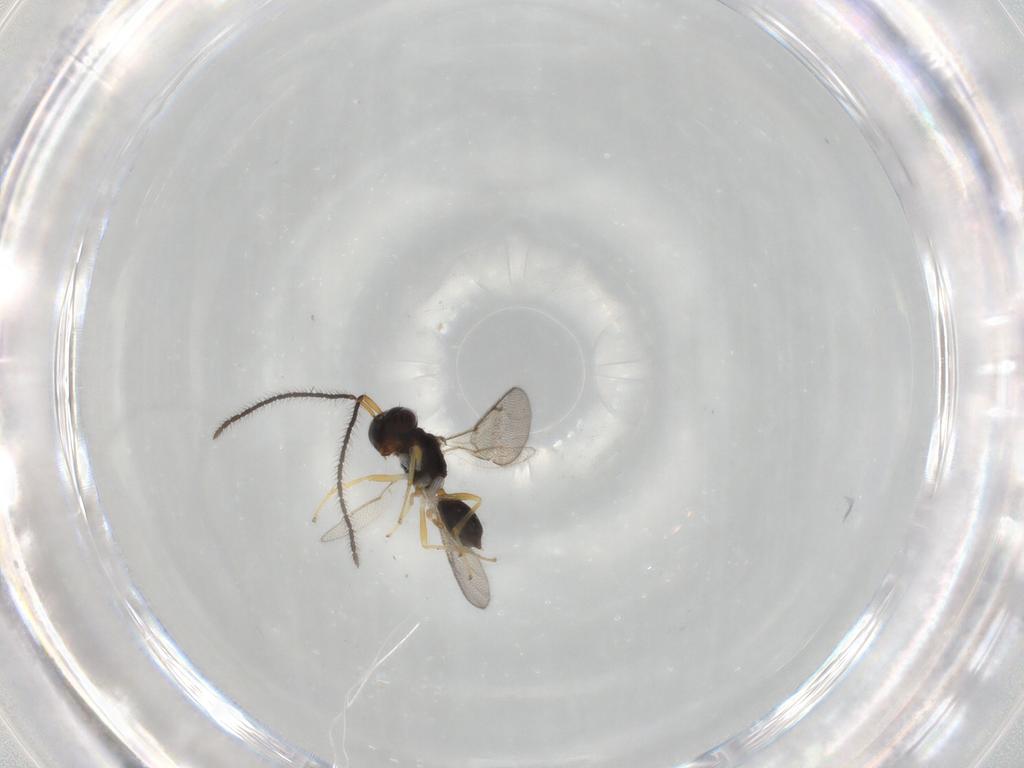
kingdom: Animalia
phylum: Arthropoda
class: Insecta
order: Hymenoptera
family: Diparidae
